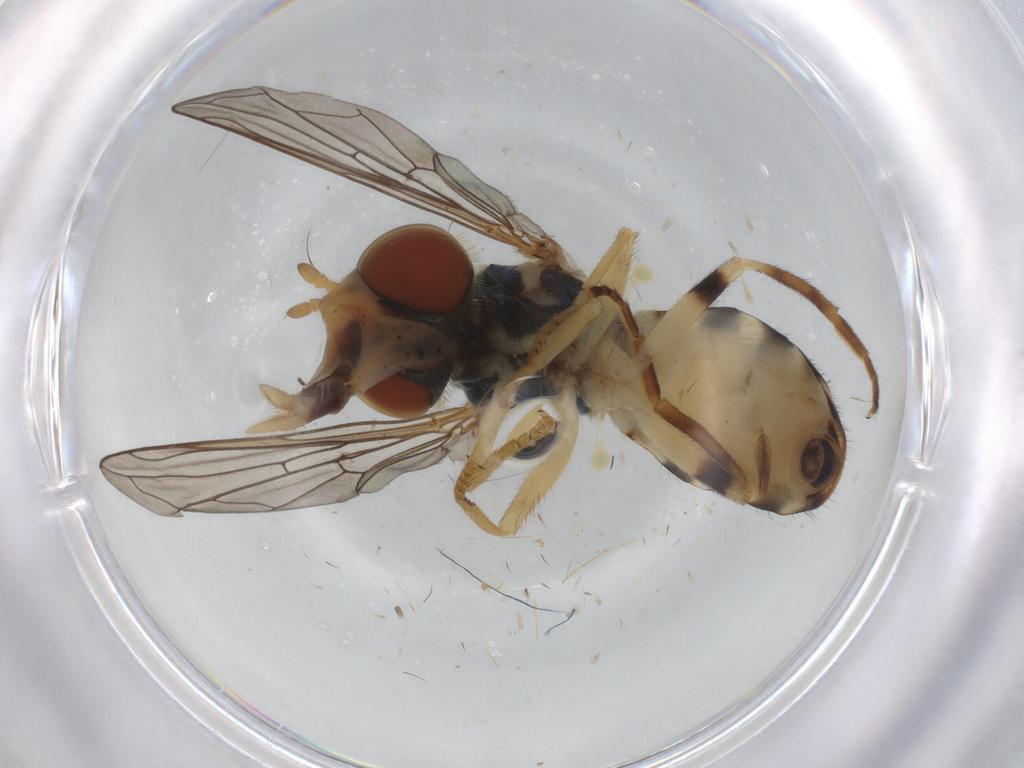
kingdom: Animalia
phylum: Arthropoda
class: Insecta
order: Diptera
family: Syrphidae
